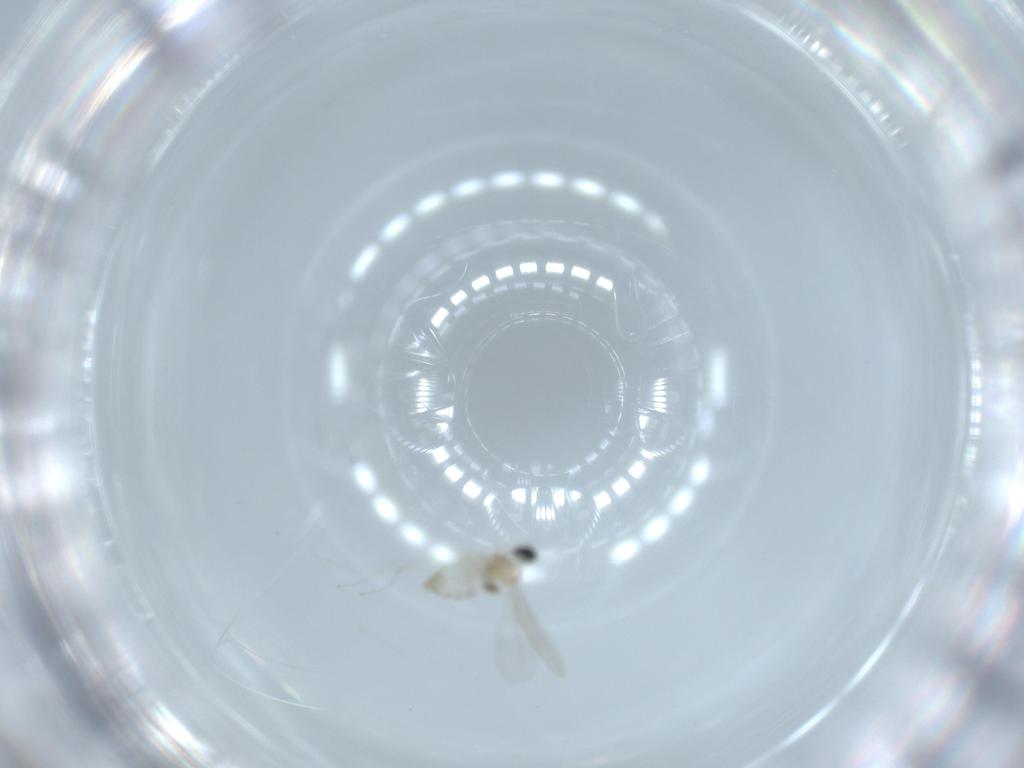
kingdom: Animalia
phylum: Arthropoda
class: Insecta
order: Diptera
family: Cecidomyiidae
